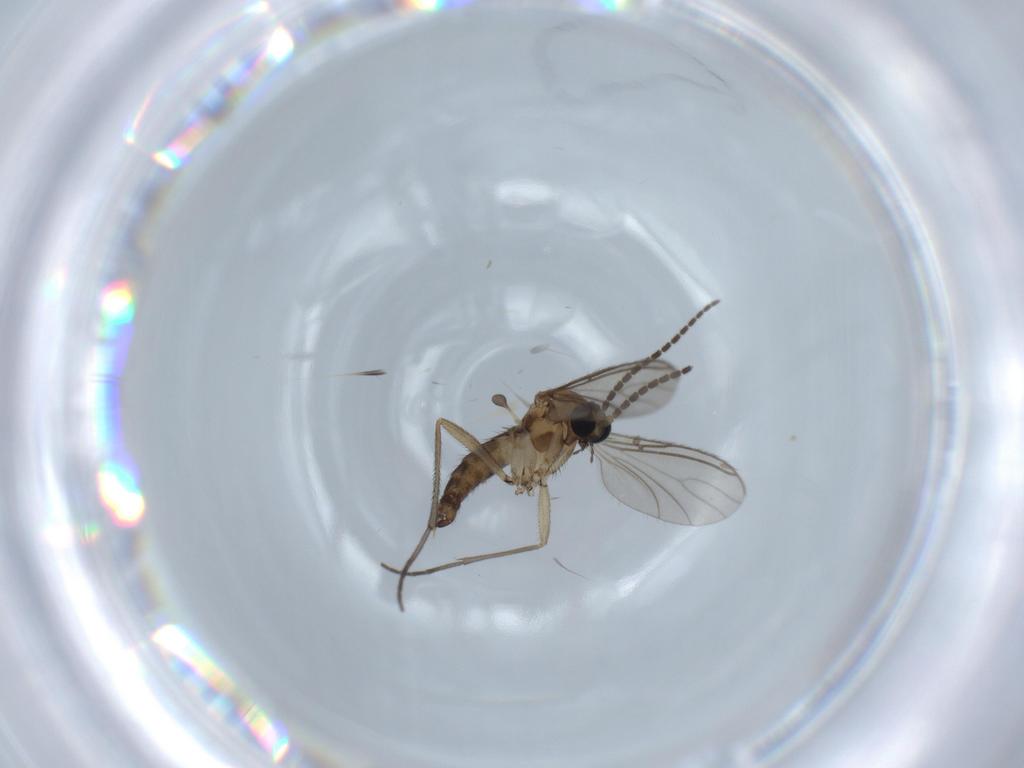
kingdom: Animalia
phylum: Arthropoda
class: Insecta
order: Diptera
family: Sciaridae
